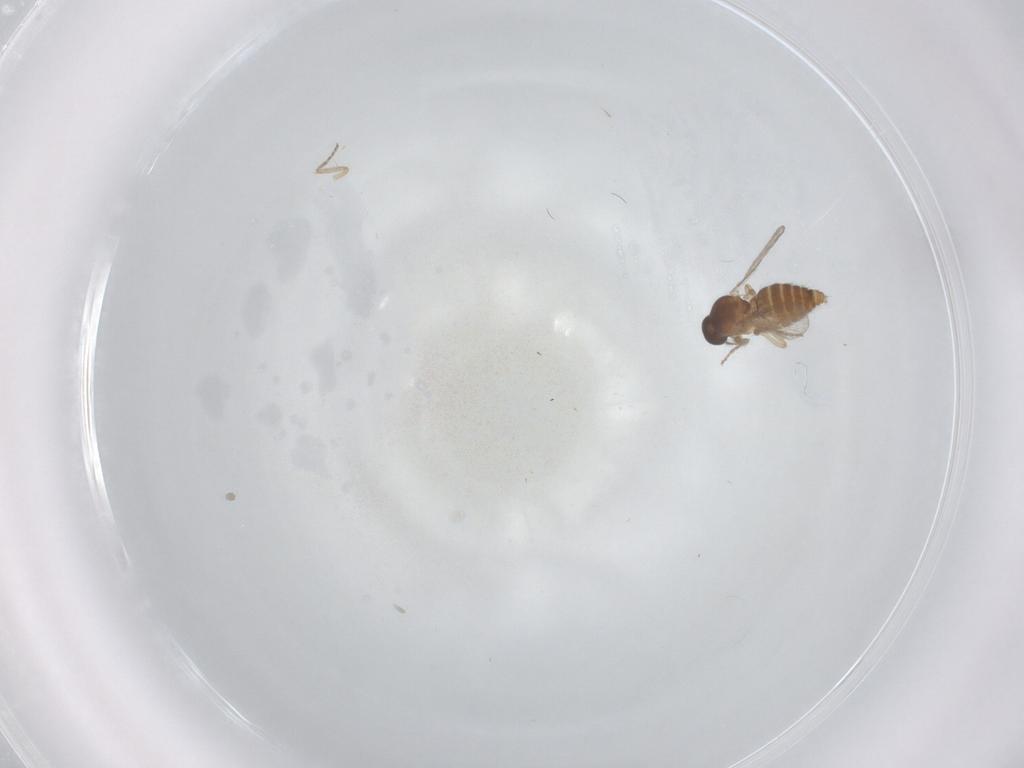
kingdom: Animalia
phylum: Arthropoda
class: Insecta
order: Diptera
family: Ceratopogonidae
